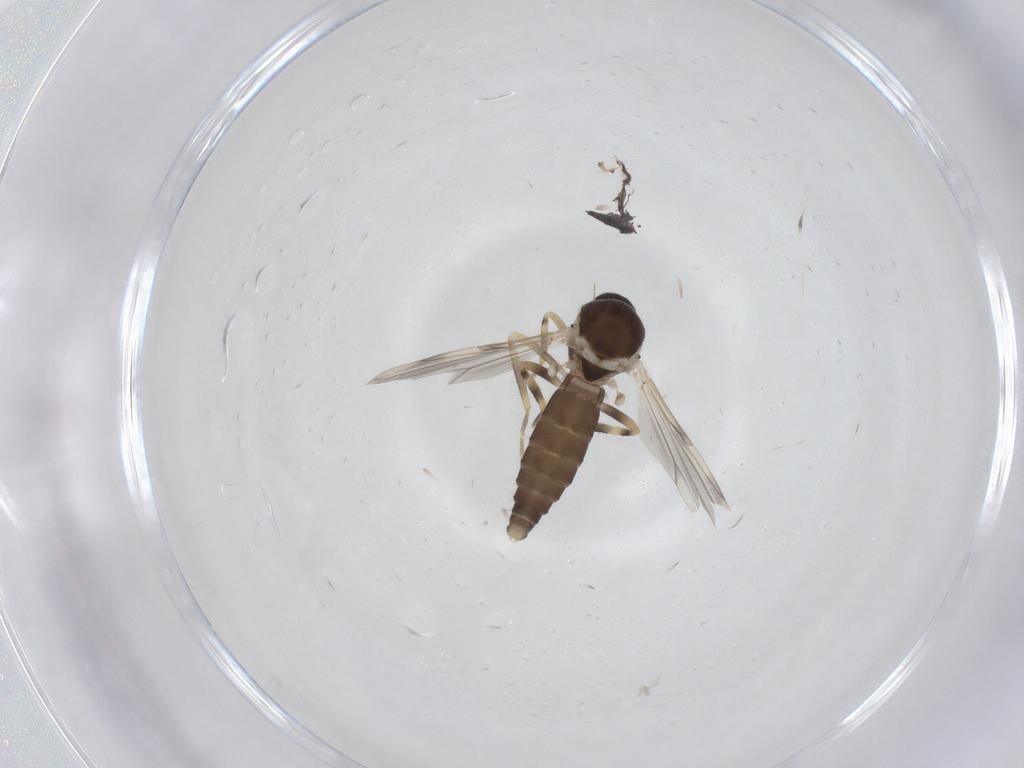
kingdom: Animalia
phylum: Arthropoda
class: Insecta
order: Diptera
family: Ceratopogonidae
